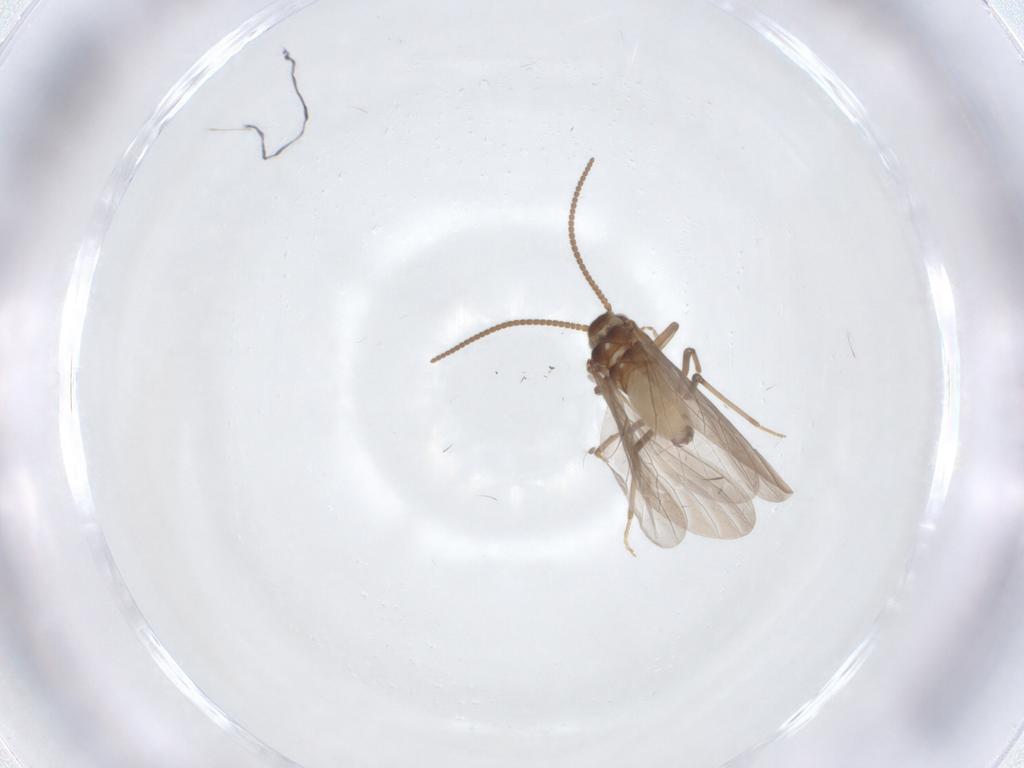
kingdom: Animalia
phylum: Arthropoda
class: Insecta
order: Neuroptera
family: Coniopterygidae
